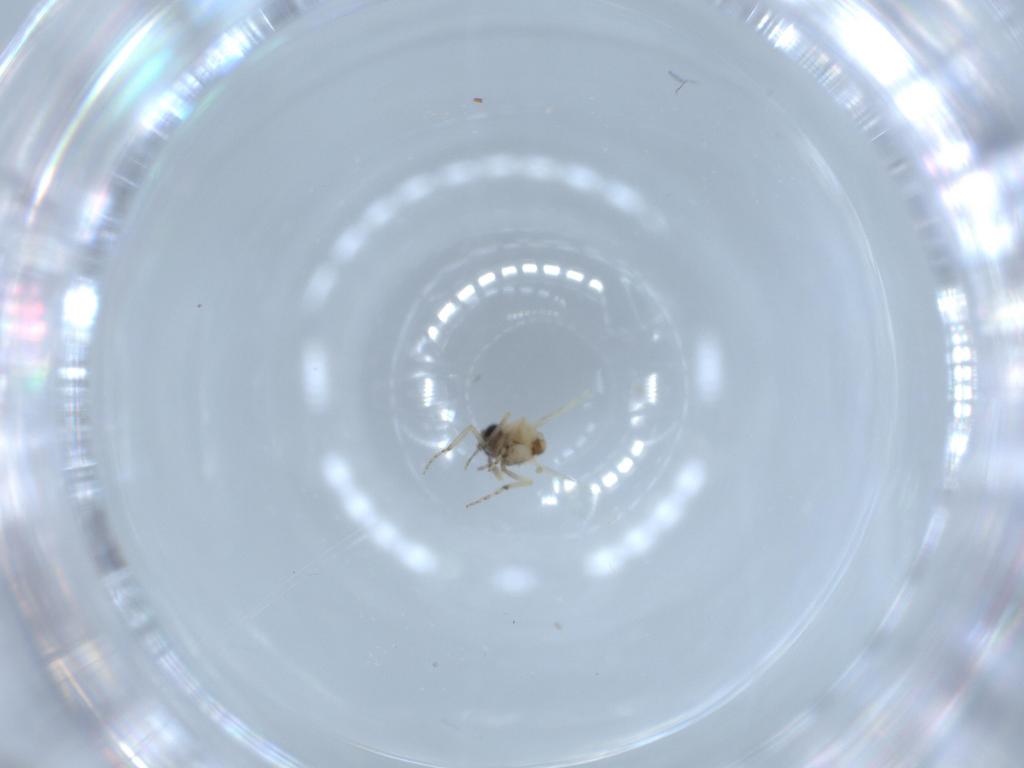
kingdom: Animalia
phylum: Arthropoda
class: Insecta
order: Diptera
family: Ceratopogonidae
